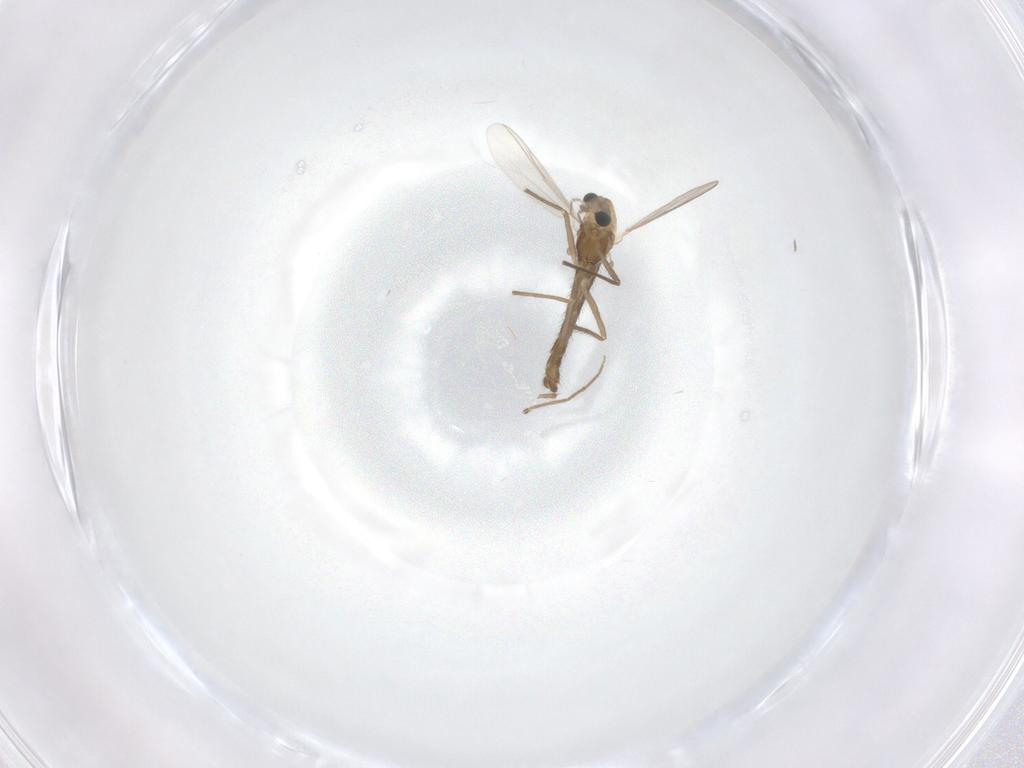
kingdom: Animalia
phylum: Arthropoda
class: Insecta
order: Diptera
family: Chironomidae
